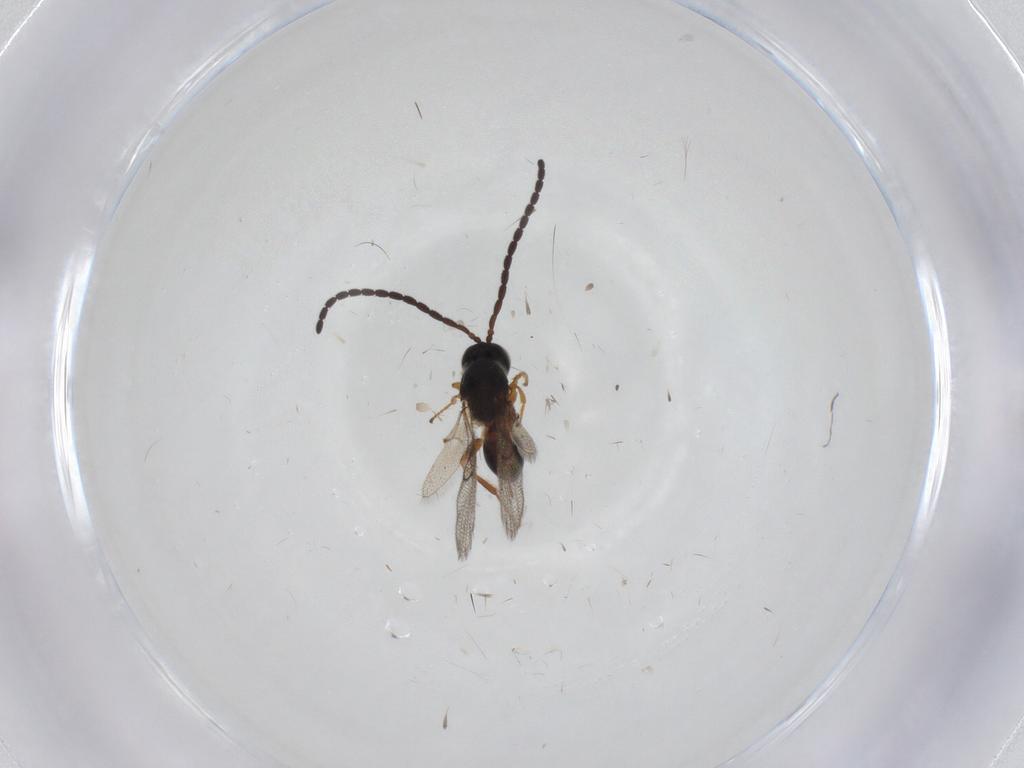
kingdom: Animalia
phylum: Arthropoda
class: Insecta
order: Hymenoptera
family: Figitidae
